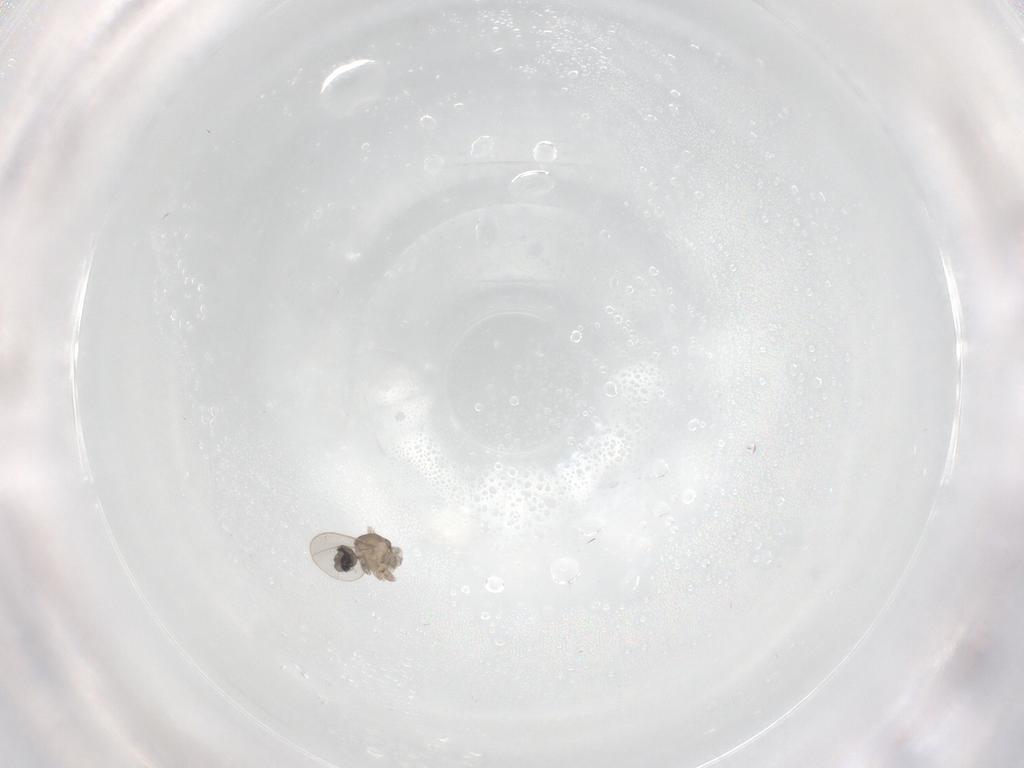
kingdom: Animalia
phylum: Arthropoda
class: Insecta
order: Diptera
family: Cecidomyiidae
